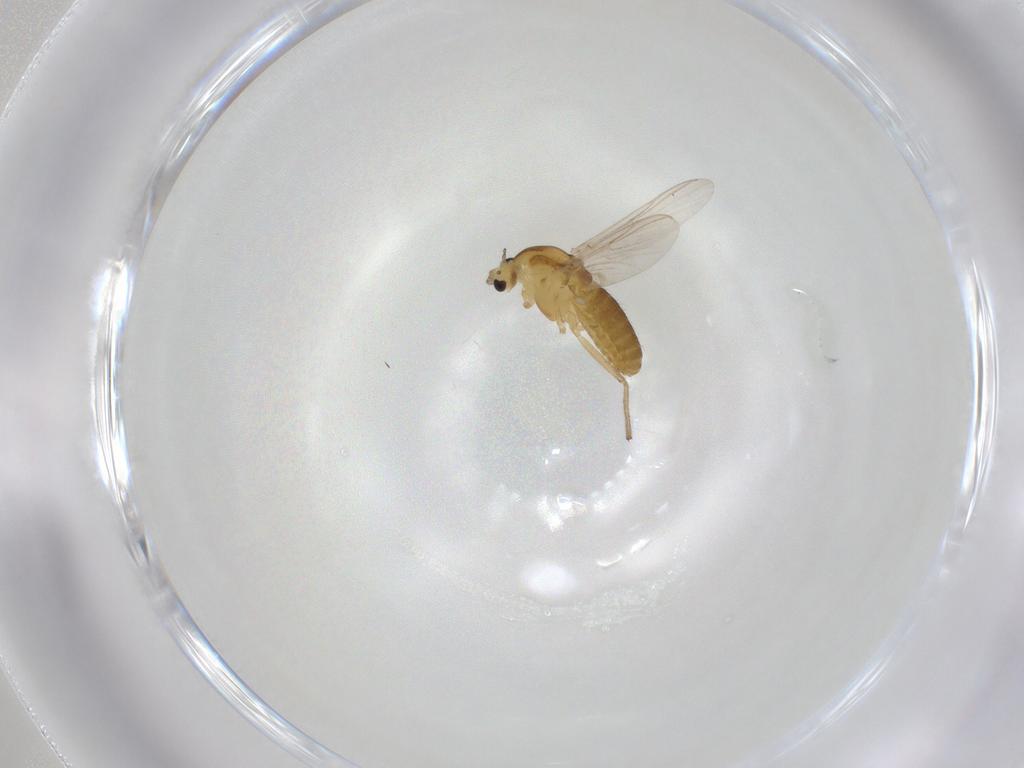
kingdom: Animalia
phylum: Arthropoda
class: Insecta
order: Diptera
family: Chironomidae
